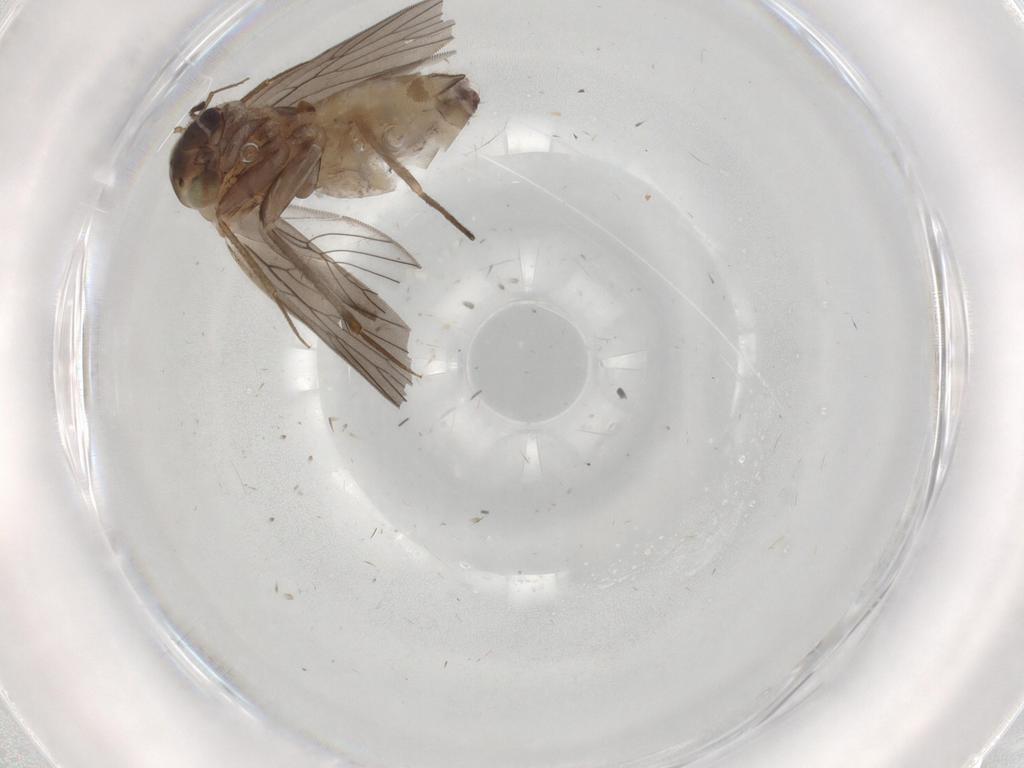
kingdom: Animalia
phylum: Arthropoda
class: Insecta
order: Psocodea
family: Lepidopsocidae
